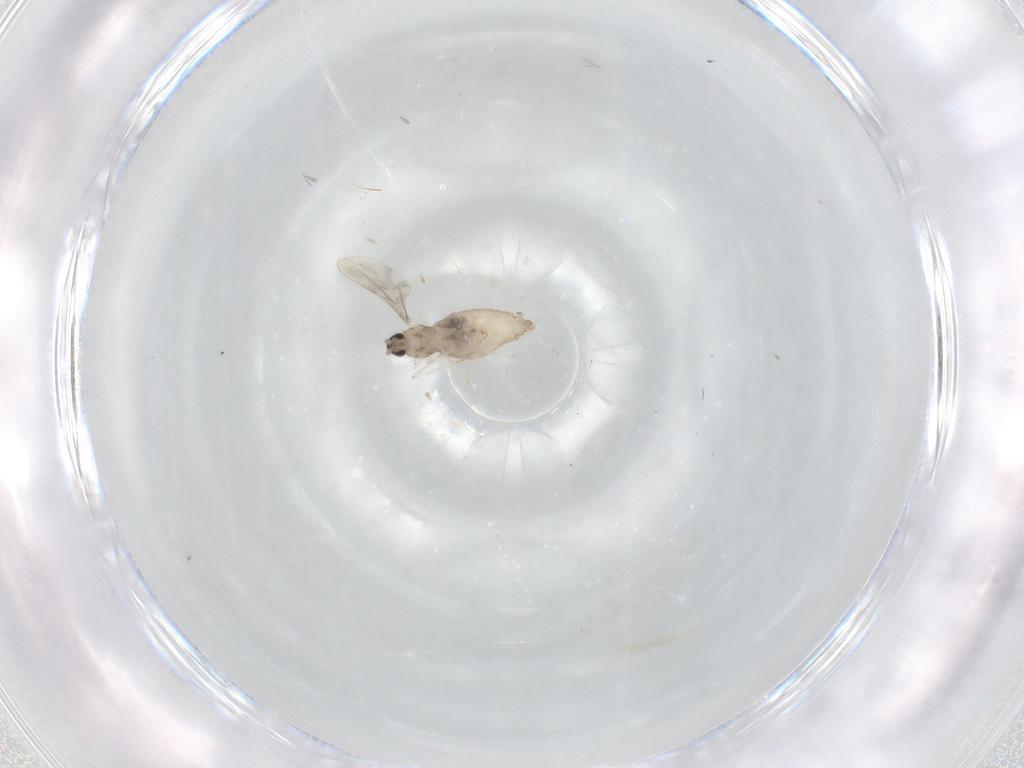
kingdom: Animalia
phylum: Arthropoda
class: Insecta
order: Diptera
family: Cecidomyiidae
